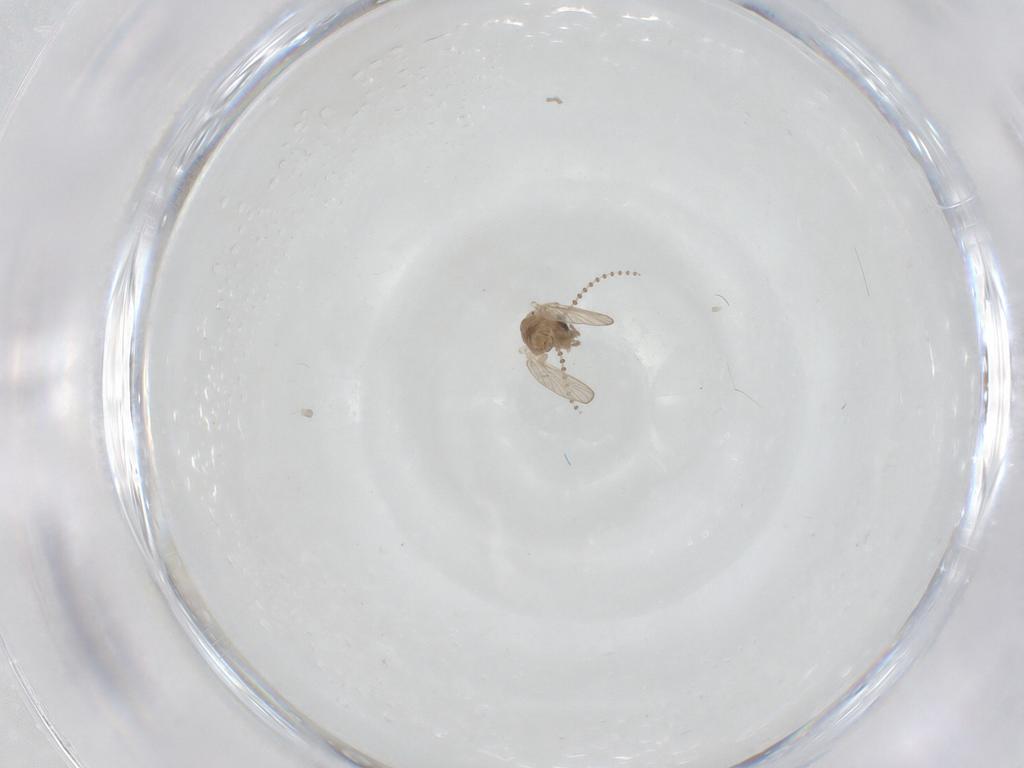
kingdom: Animalia
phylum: Arthropoda
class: Insecta
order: Diptera
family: Psychodidae
